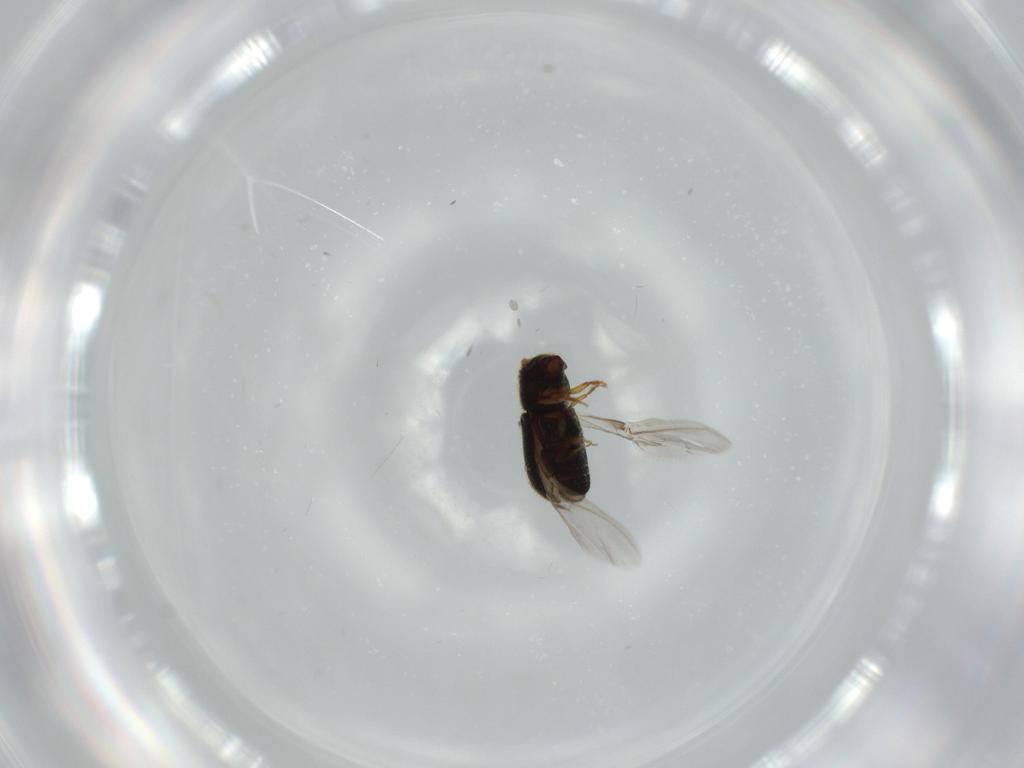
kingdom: Animalia
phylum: Arthropoda
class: Insecta
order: Coleoptera
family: Curculionidae
